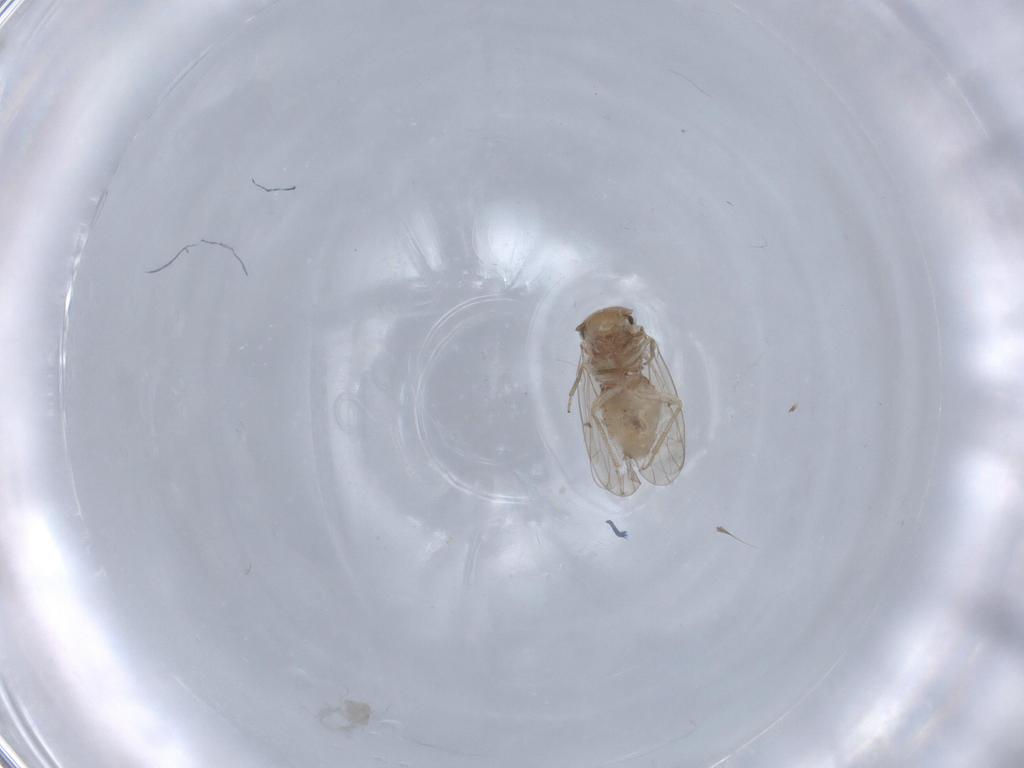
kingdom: Animalia
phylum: Arthropoda
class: Insecta
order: Psocodea
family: Ectopsocidae
